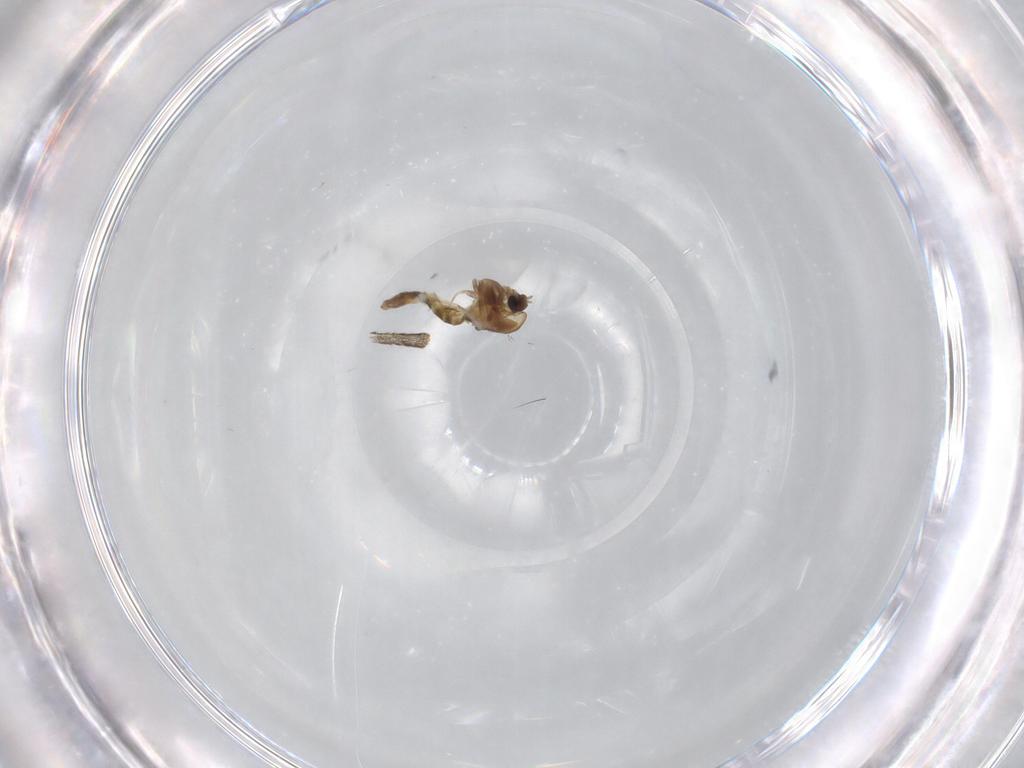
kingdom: Animalia
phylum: Arthropoda
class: Insecta
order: Diptera
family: Chironomidae
